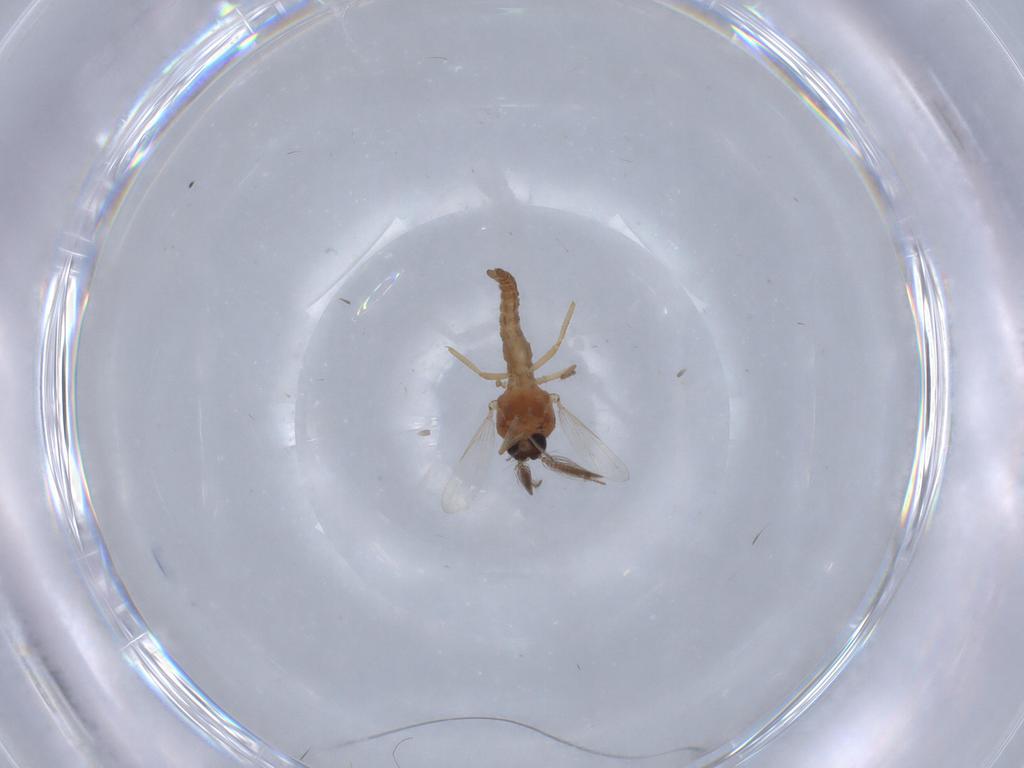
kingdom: Animalia
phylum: Arthropoda
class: Insecta
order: Diptera
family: Ceratopogonidae
